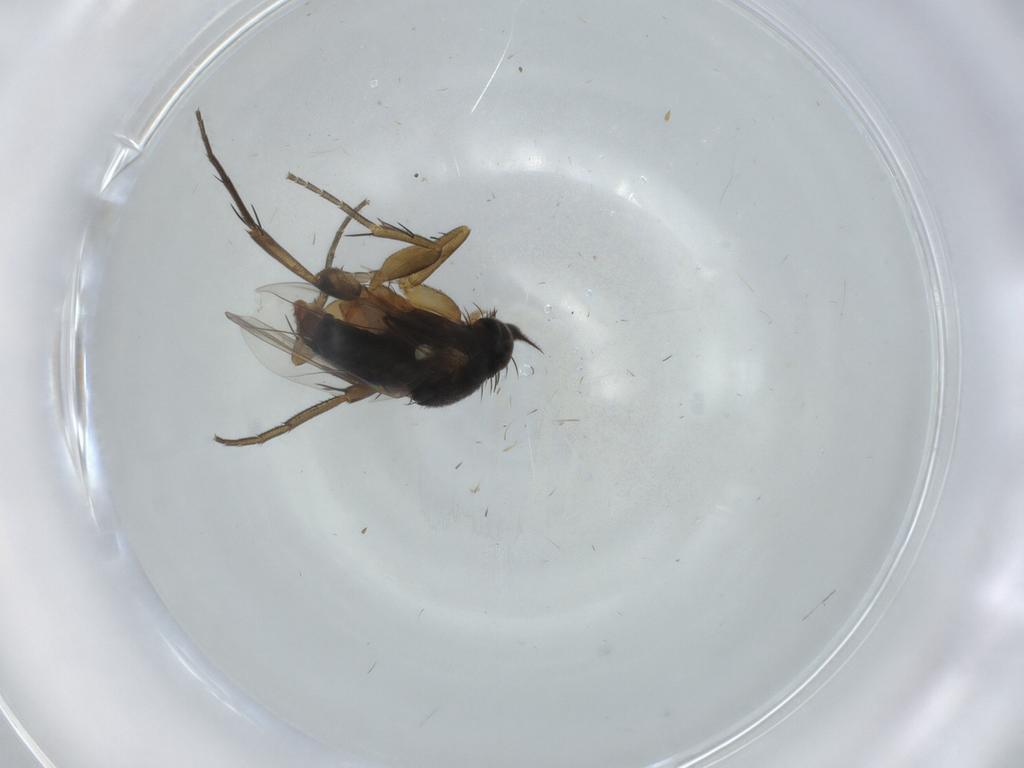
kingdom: Animalia
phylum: Arthropoda
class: Insecta
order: Diptera
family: Phoridae
